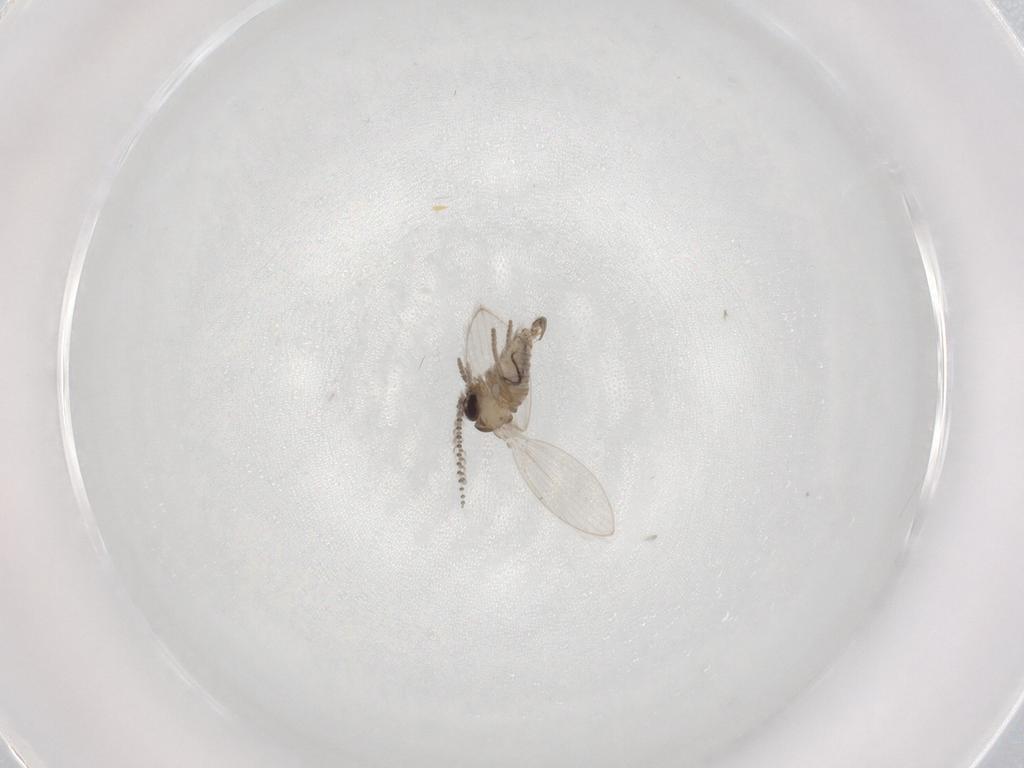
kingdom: Animalia
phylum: Arthropoda
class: Insecta
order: Diptera
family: Psychodidae
